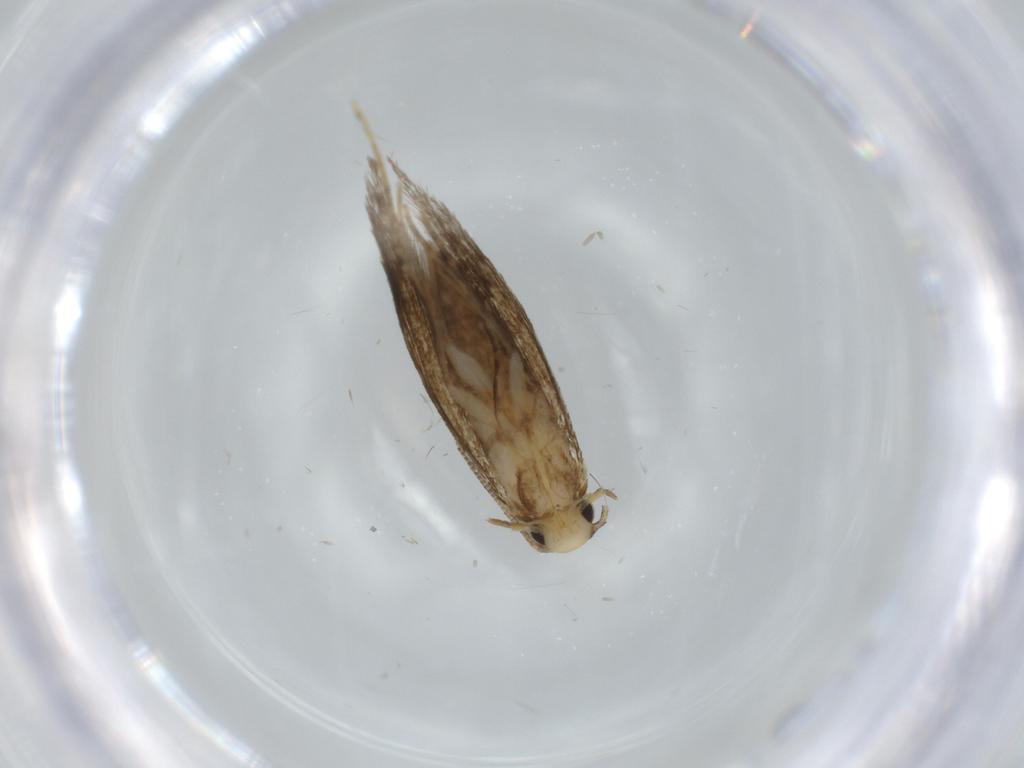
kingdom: Animalia
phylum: Arthropoda
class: Insecta
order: Lepidoptera
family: Tineidae
